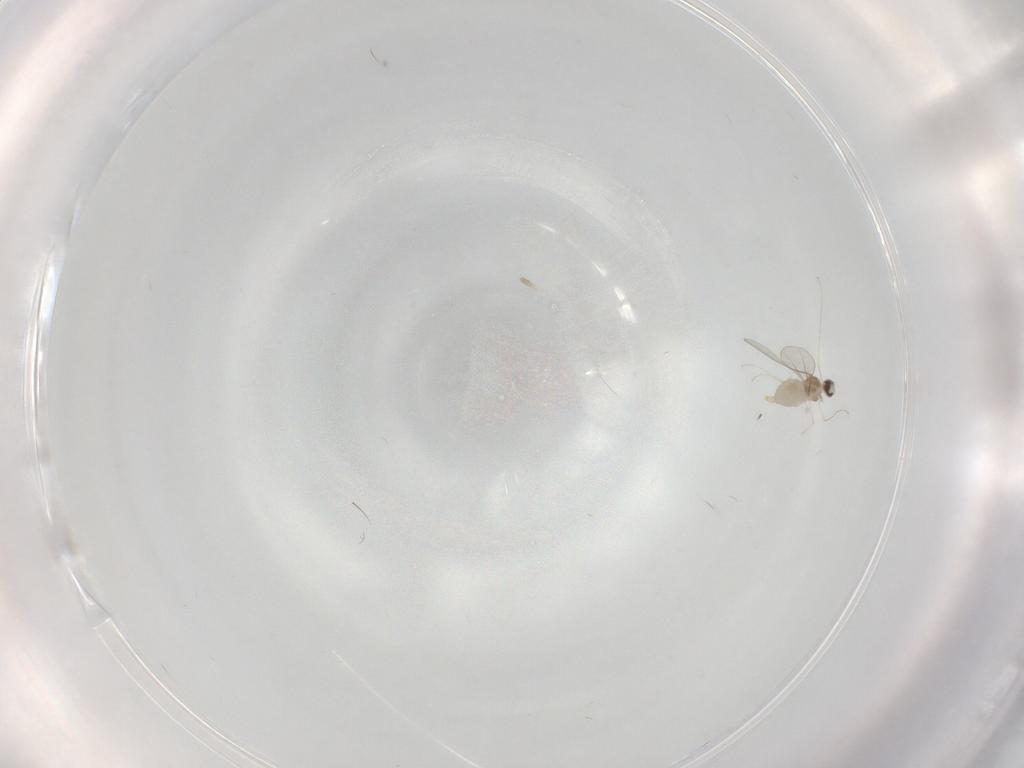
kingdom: Animalia
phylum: Arthropoda
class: Insecta
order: Diptera
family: Cecidomyiidae
